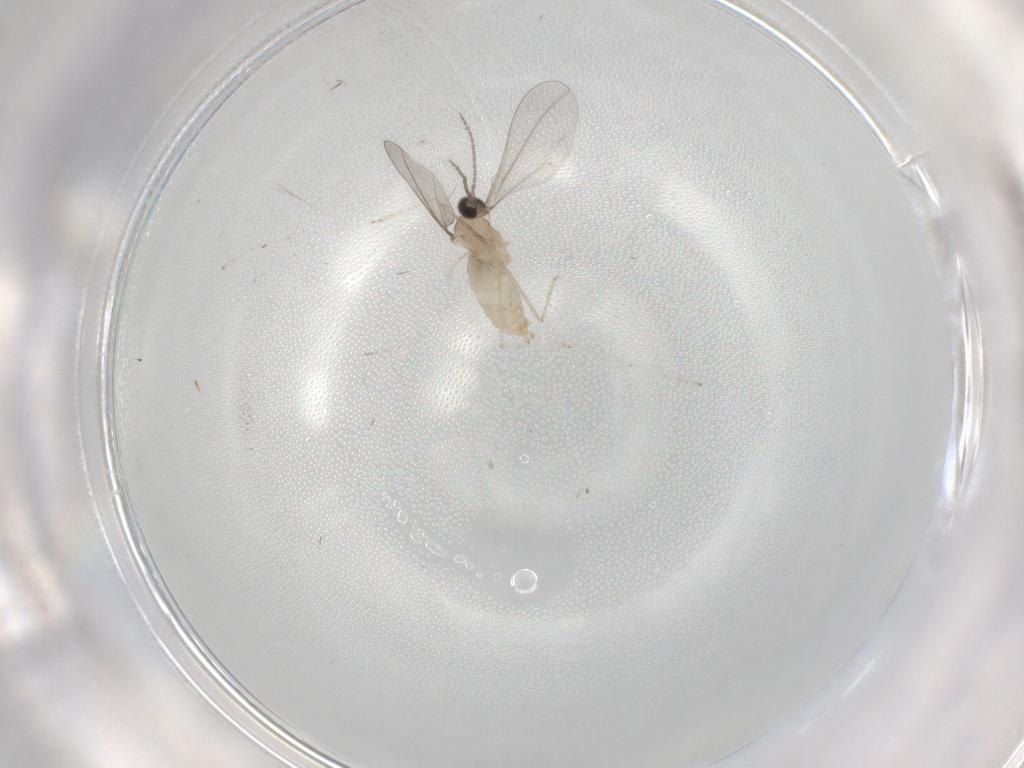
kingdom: Animalia
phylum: Arthropoda
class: Insecta
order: Diptera
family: Cecidomyiidae
